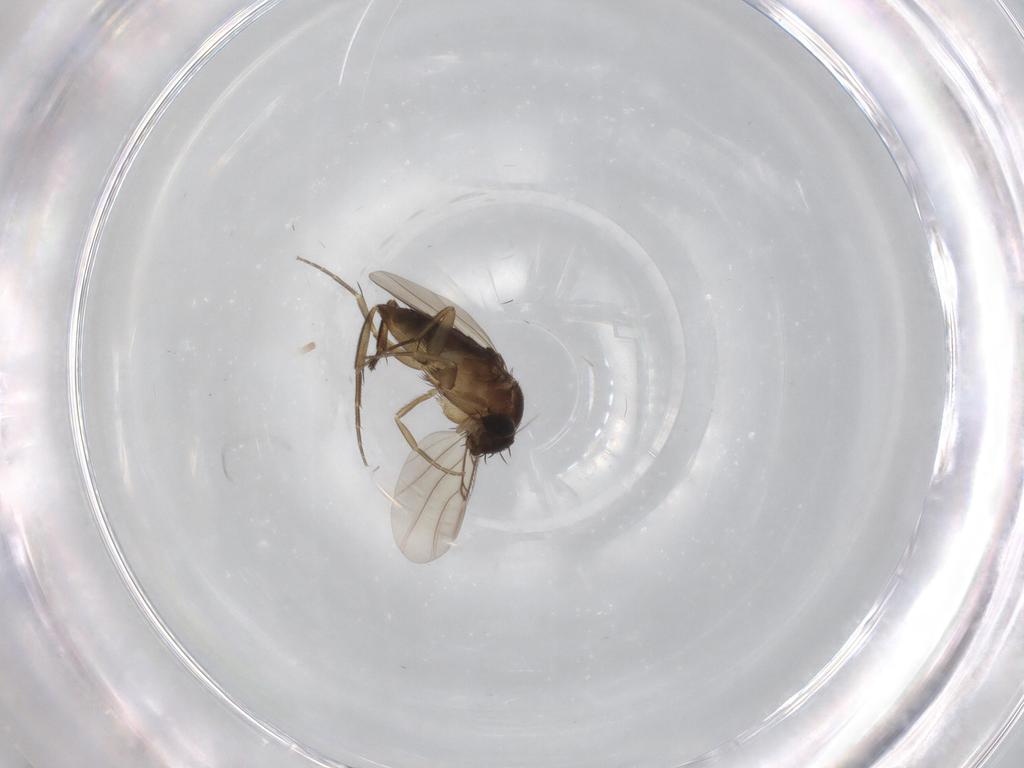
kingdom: Animalia
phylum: Arthropoda
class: Insecta
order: Diptera
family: Phoridae
